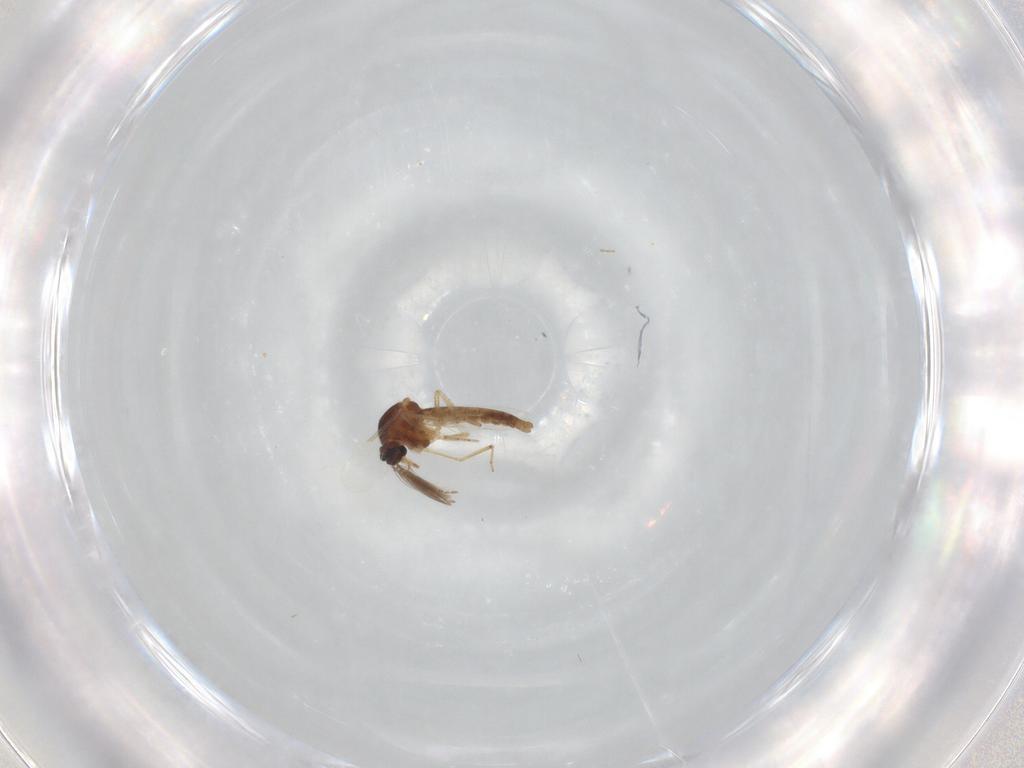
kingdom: Animalia
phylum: Arthropoda
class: Insecta
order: Diptera
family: Ceratopogonidae
